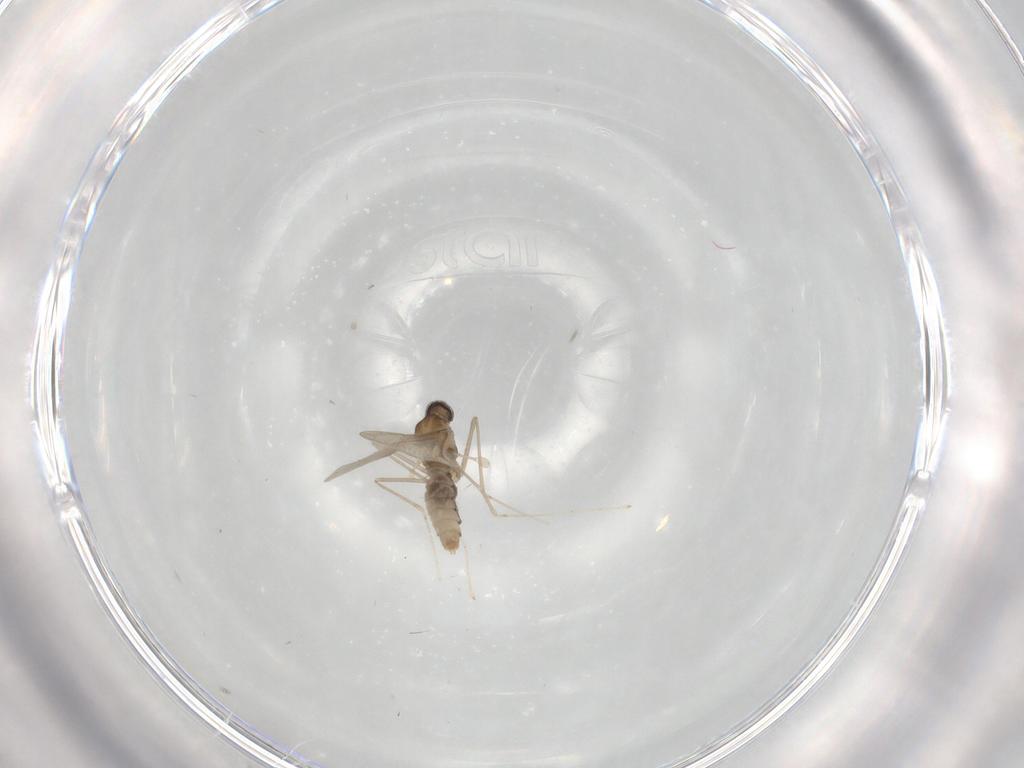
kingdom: Animalia
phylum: Arthropoda
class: Insecta
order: Diptera
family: Cecidomyiidae
